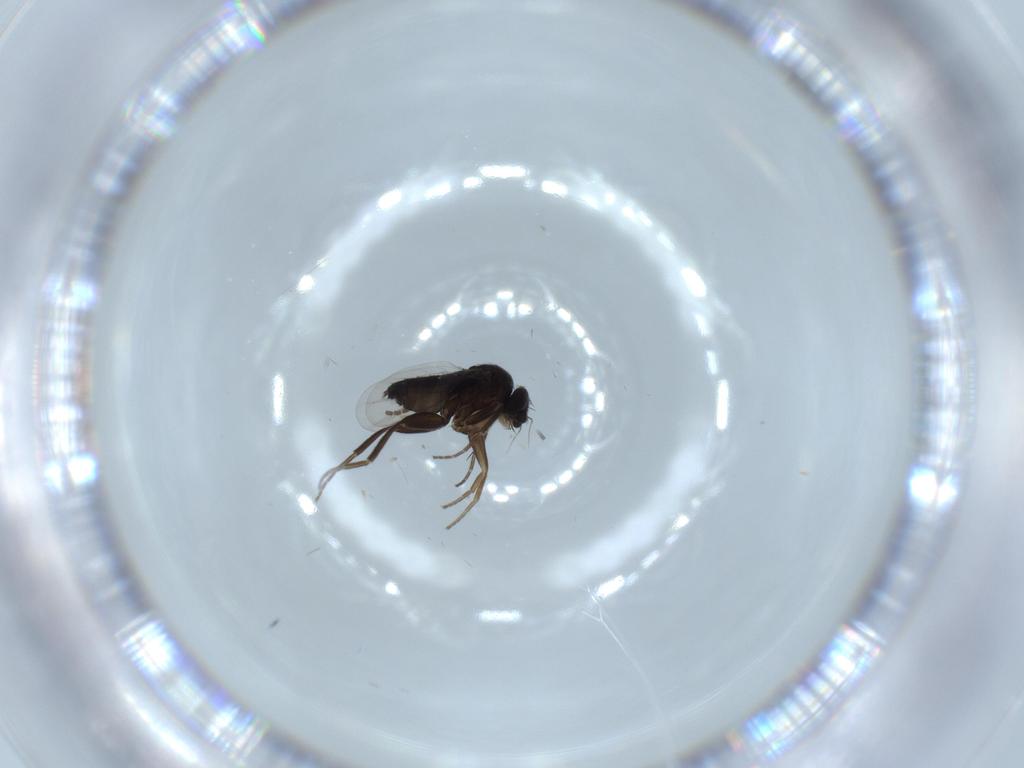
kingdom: Animalia
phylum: Arthropoda
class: Insecta
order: Diptera
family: Phoridae
